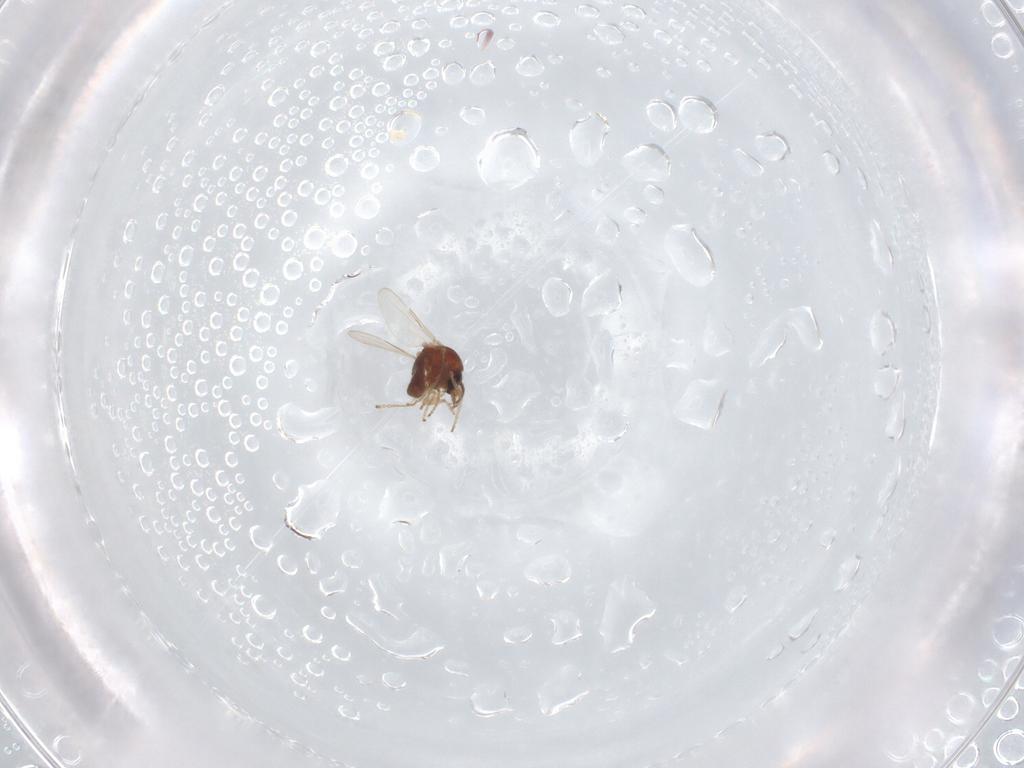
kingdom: Animalia
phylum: Arthropoda
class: Insecta
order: Diptera
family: Ceratopogonidae
